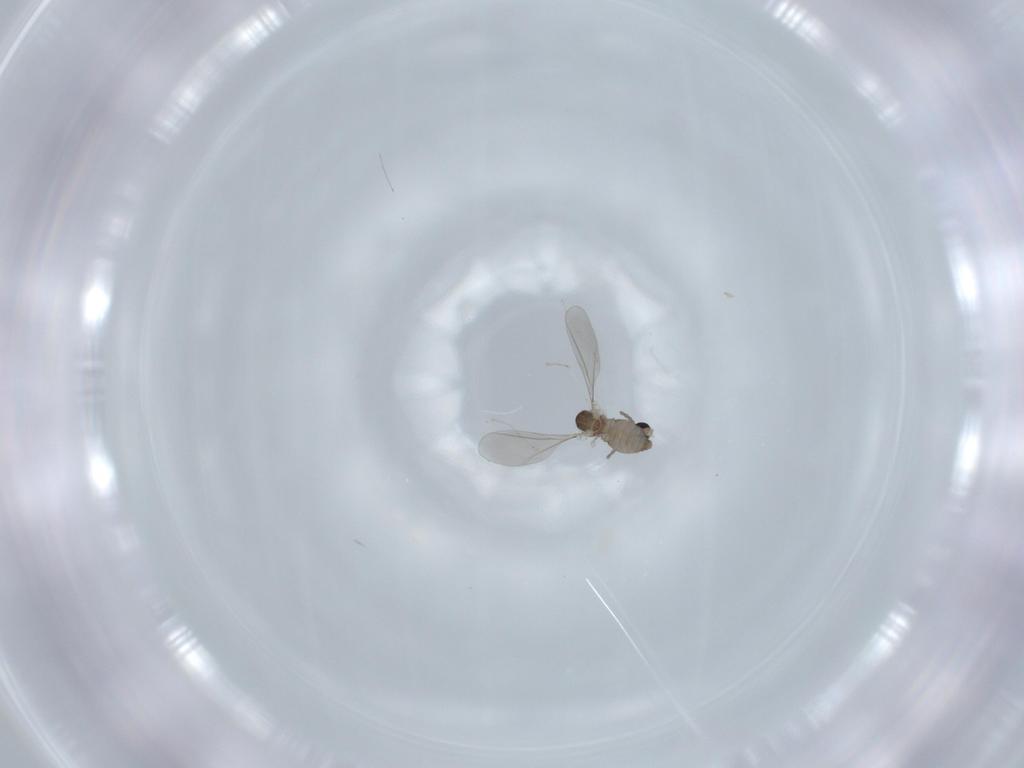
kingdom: Animalia
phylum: Arthropoda
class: Insecta
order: Diptera
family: Cecidomyiidae
